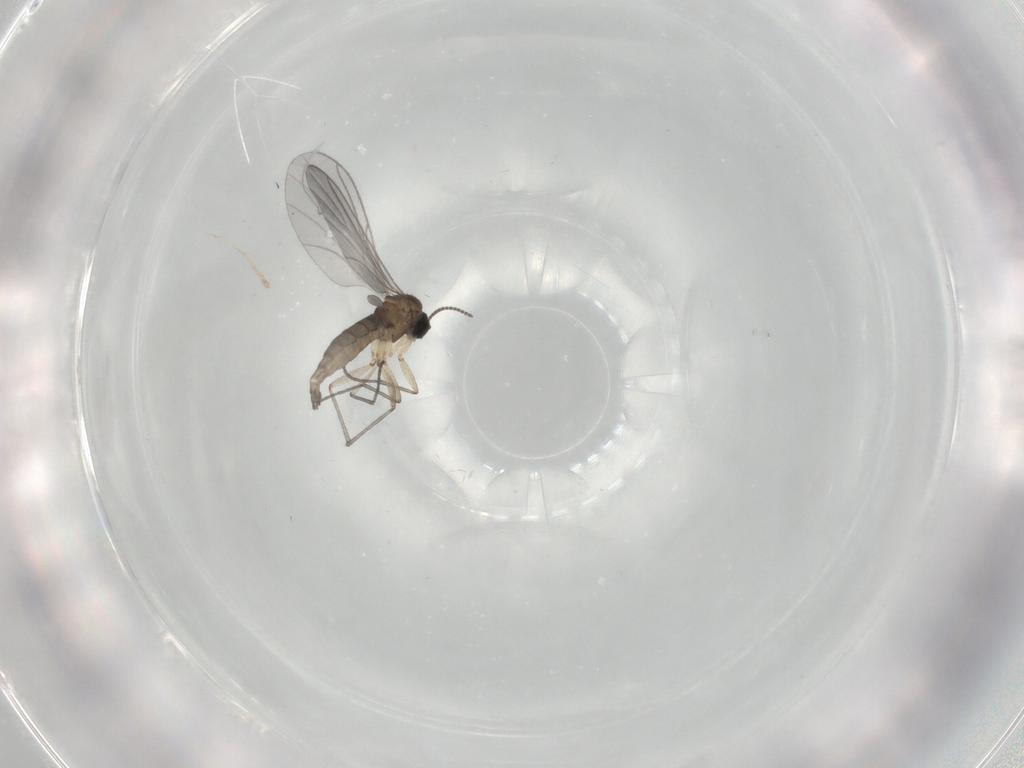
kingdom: Animalia
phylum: Arthropoda
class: Insecta
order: Diptera
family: Sciaridae
